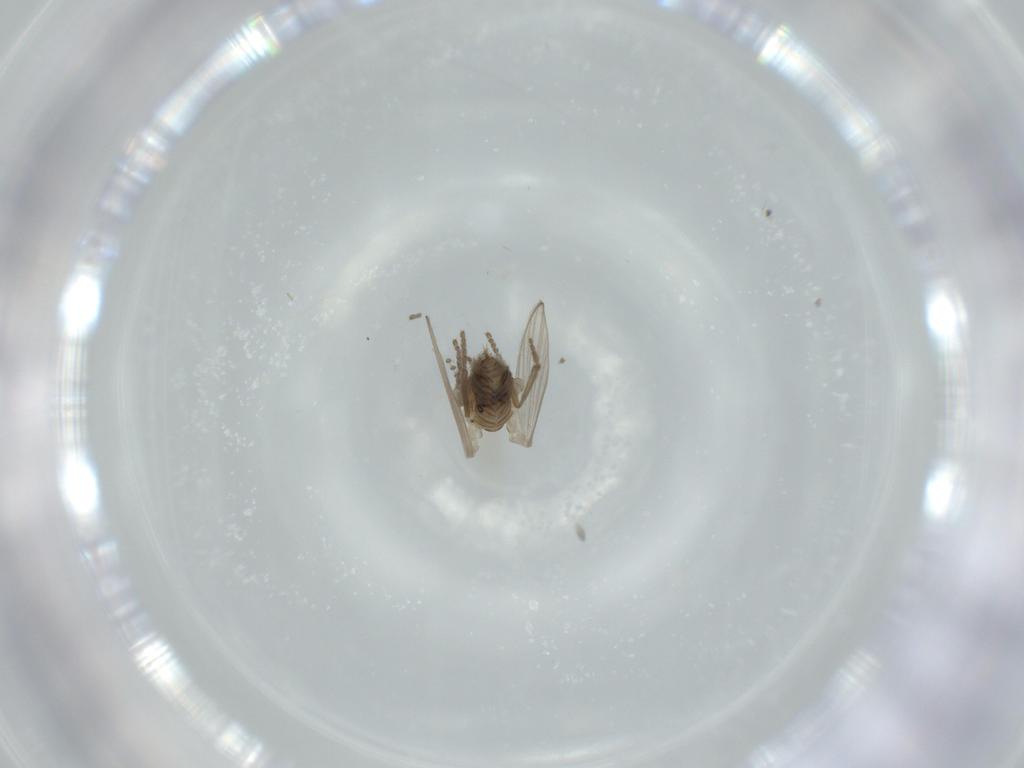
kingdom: Animalia
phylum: Arthropoda
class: Insecta
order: Diptera
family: Psychodidae
